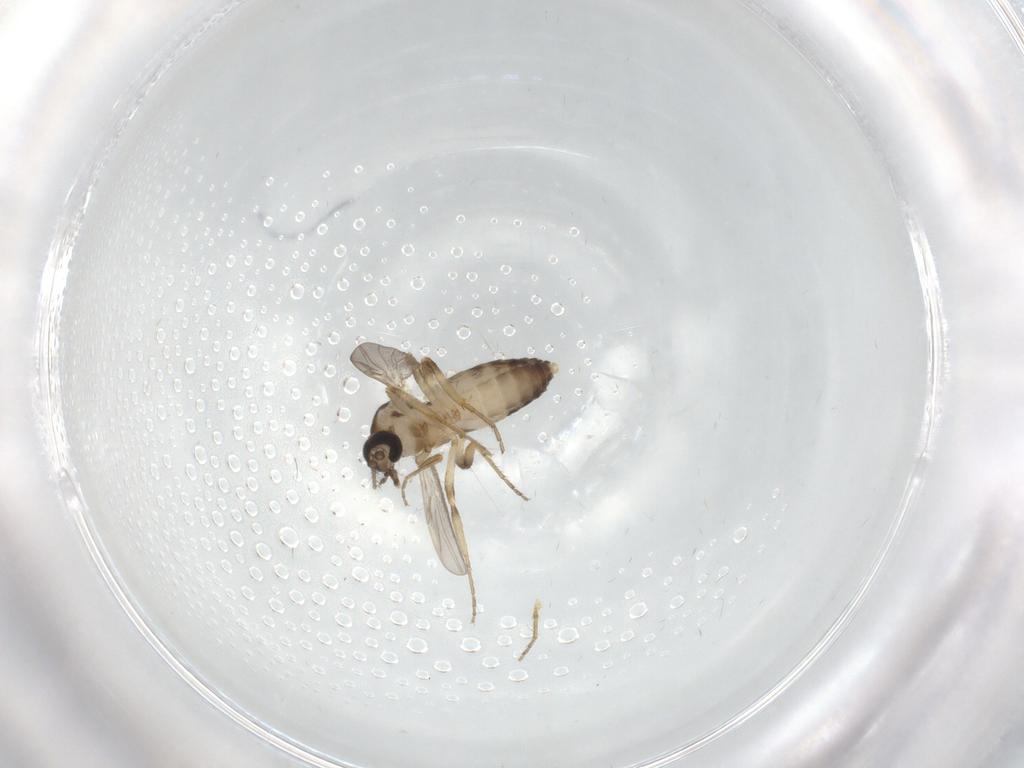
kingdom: Animalia
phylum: Arthropoda
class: Insecta
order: Diptera
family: Ceratopogonidae
